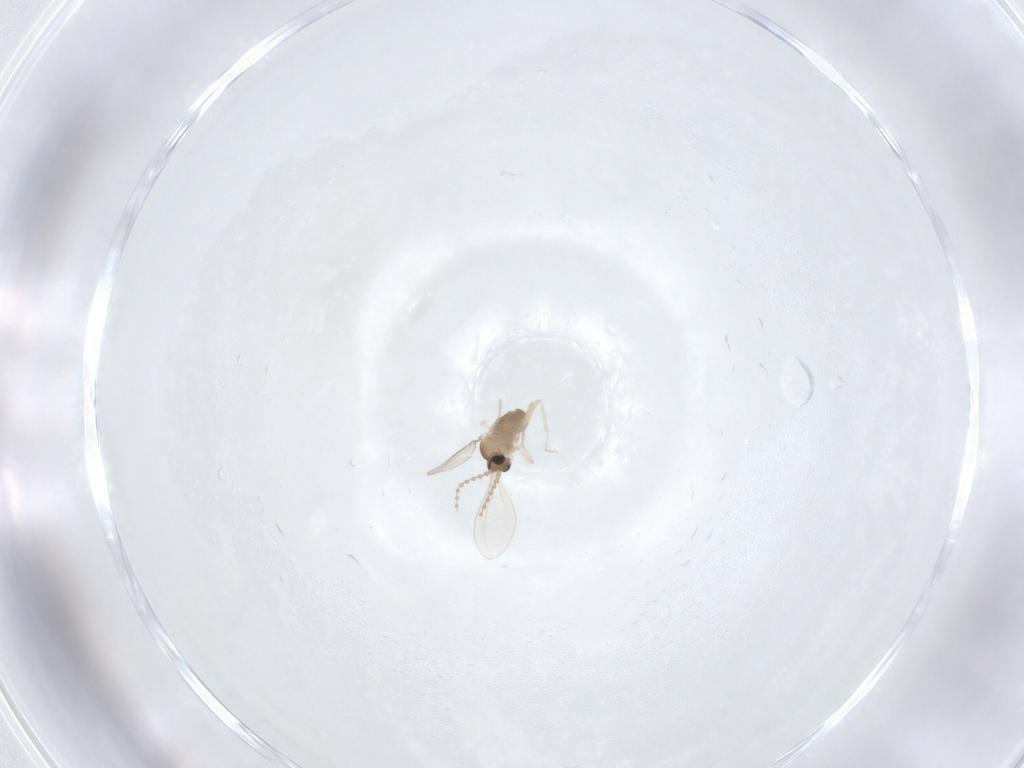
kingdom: Animalia
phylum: Arthropoda
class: Insecta
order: Diptera
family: Cecidomyiidae
